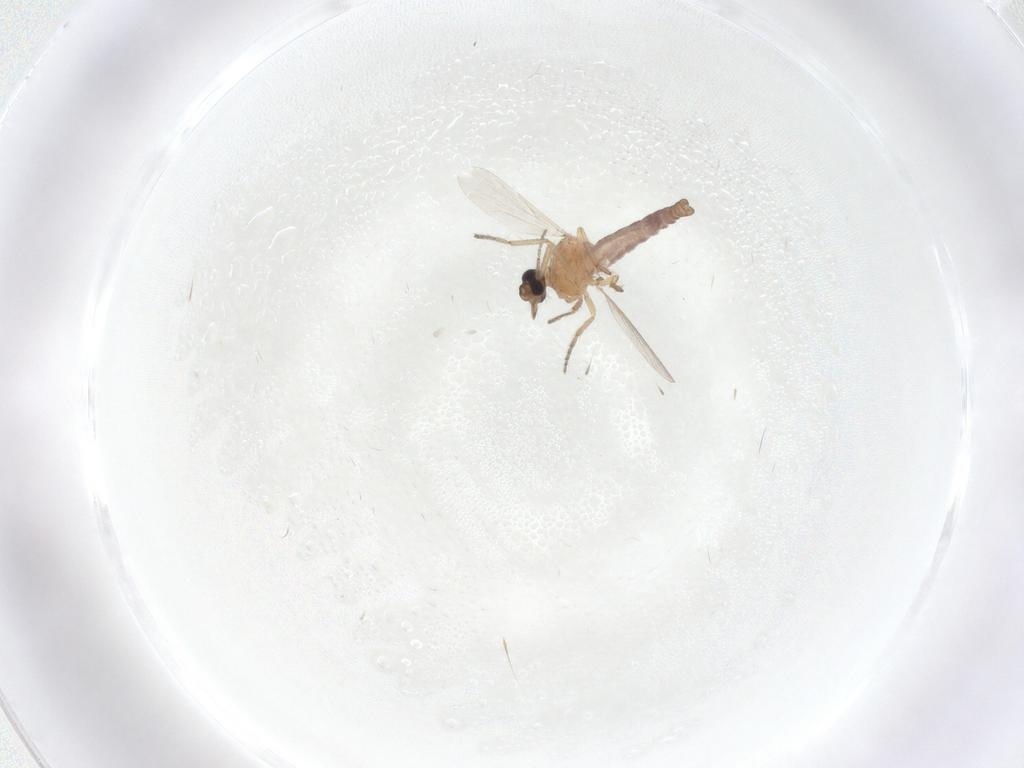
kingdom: Animalia
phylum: Arthropoda
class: Insecta
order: Diptera
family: Ceratopogonidae
